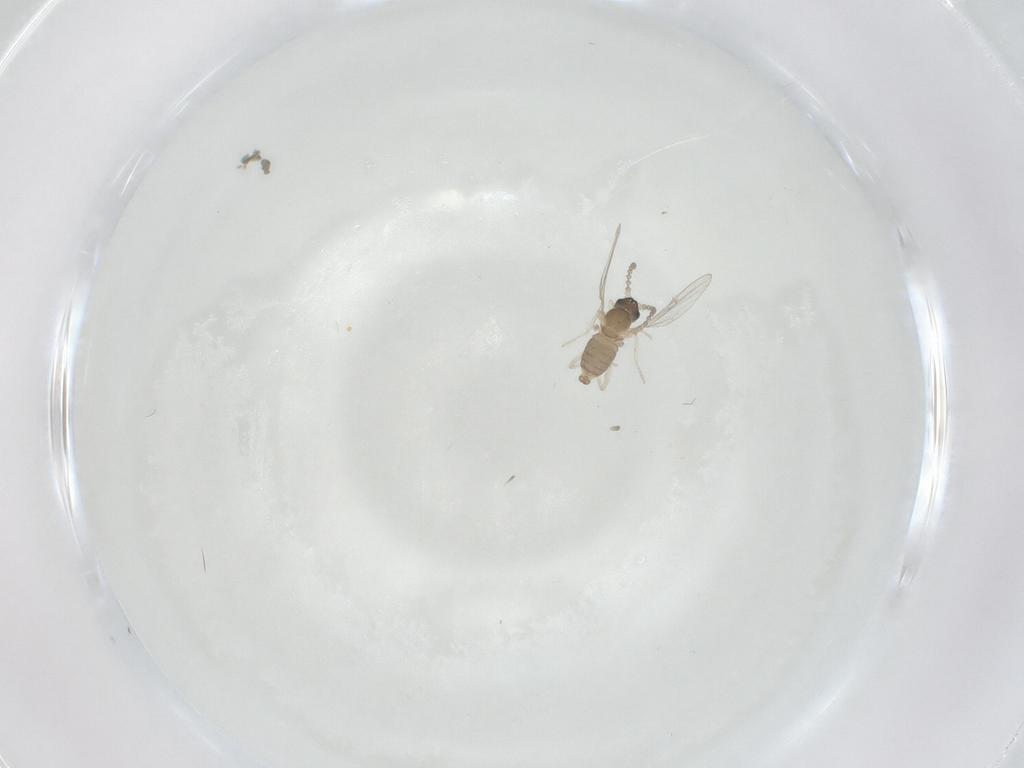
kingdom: Animalia
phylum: Arthropoda
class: Insecta
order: Diptera
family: Cecidomyiidae
